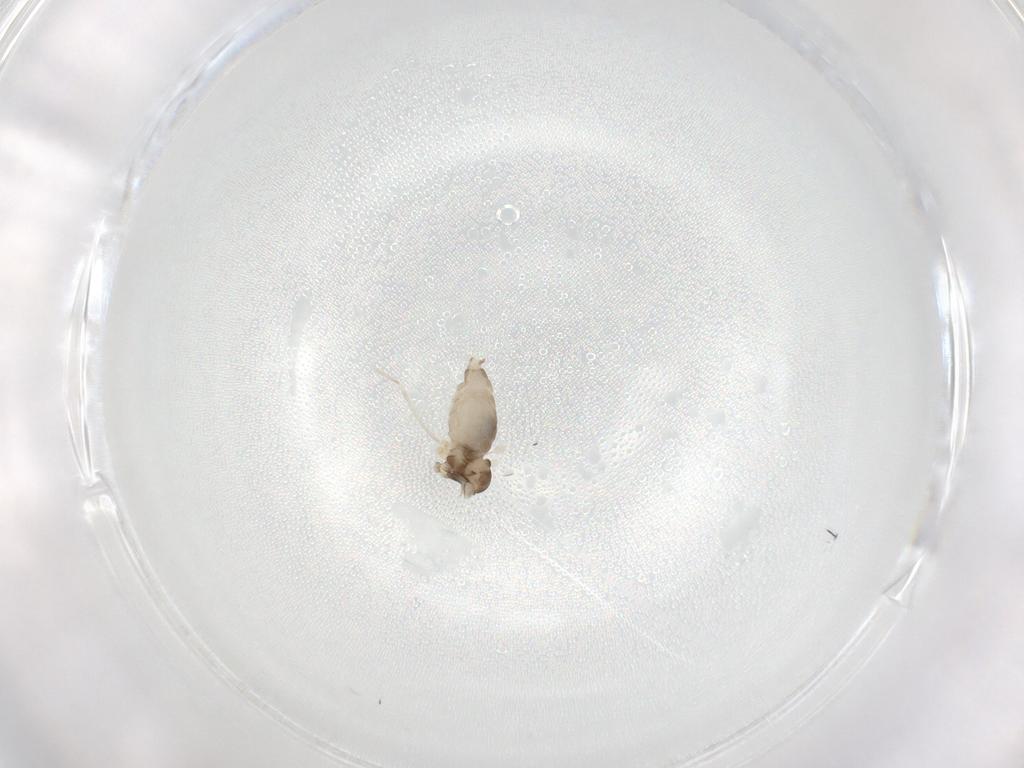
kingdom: Animalia
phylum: Arthropoda
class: Insecta
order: Diptera
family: Cecidomyiidae
